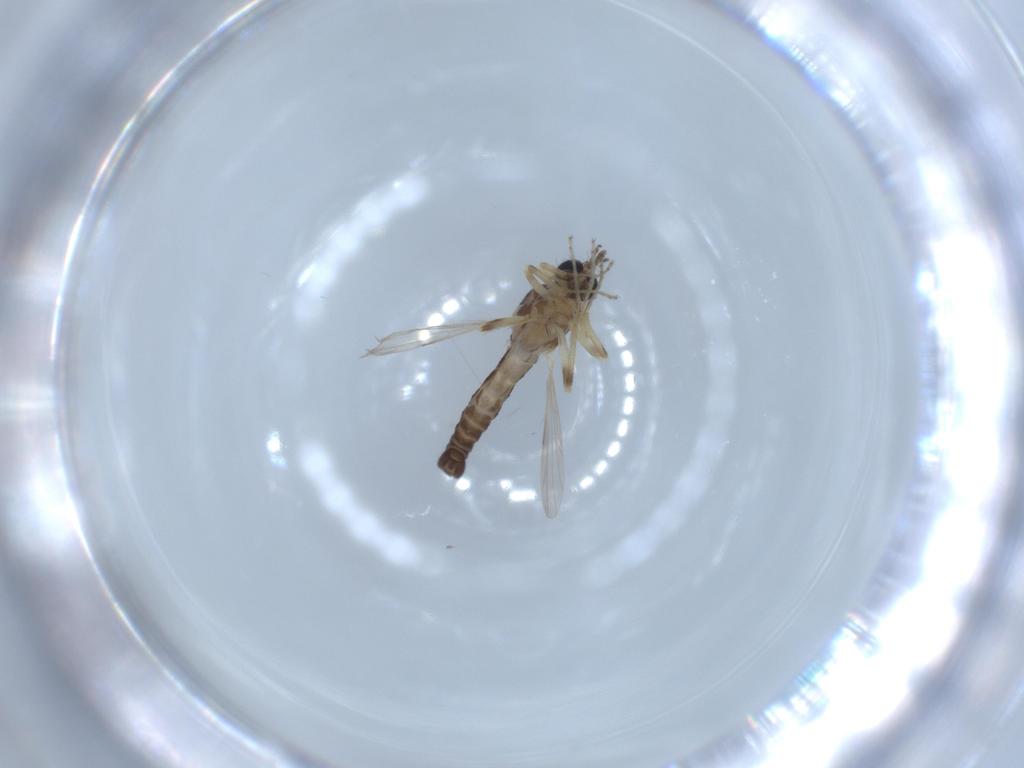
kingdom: Animalia
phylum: Arthropoda
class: Insecta
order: Diptera
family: Ceratopogonidae
